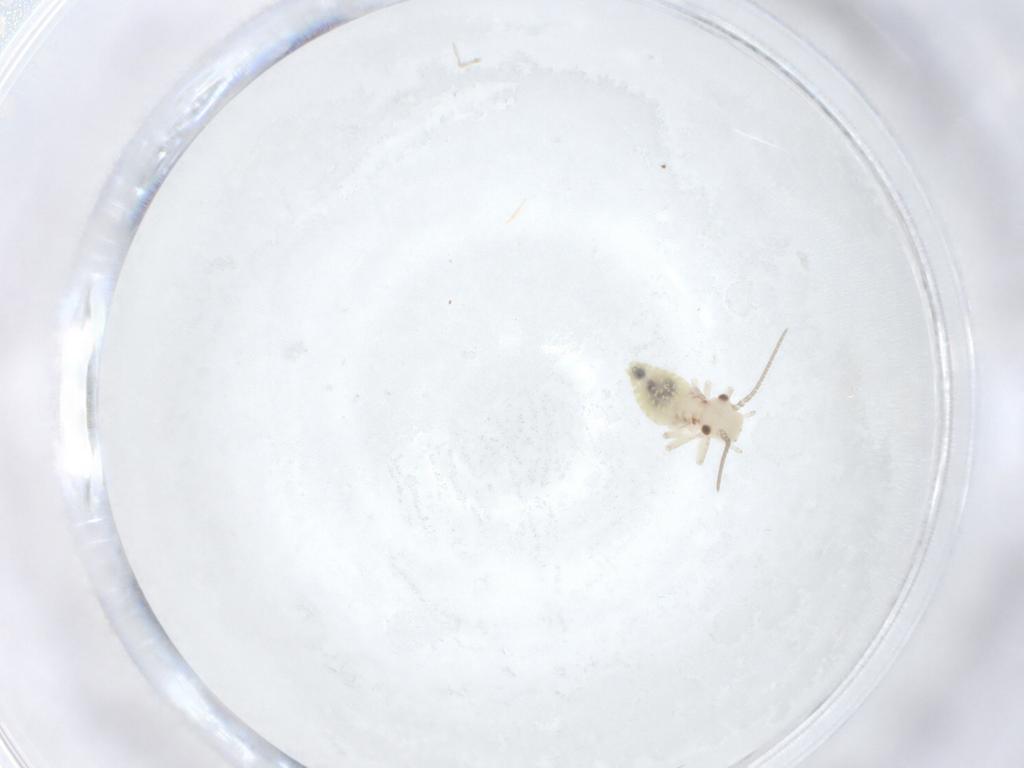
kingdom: Animalia
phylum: Arthropoda
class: Insecta
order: Psocodea
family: Caeciliusidae
